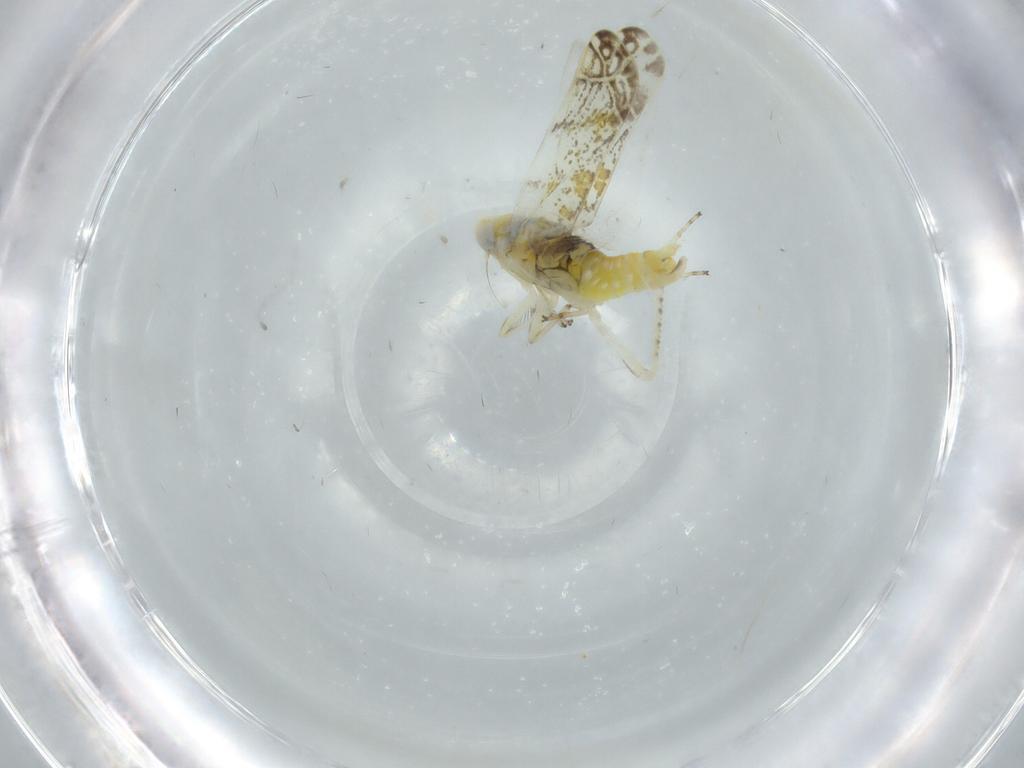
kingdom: Animalia
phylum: Arthropoda
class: Insecta
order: Hemiptera
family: Cicadellidae
